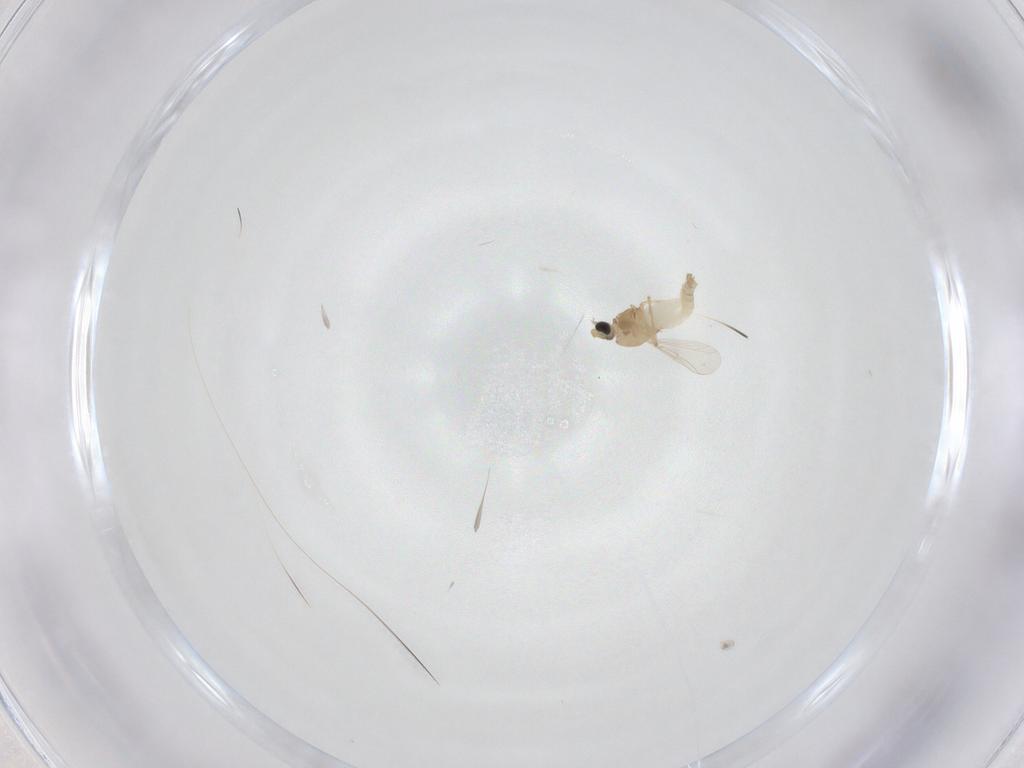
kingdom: Animalia
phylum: Arthropoda
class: Insecta
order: Diptera
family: Chironomidae
